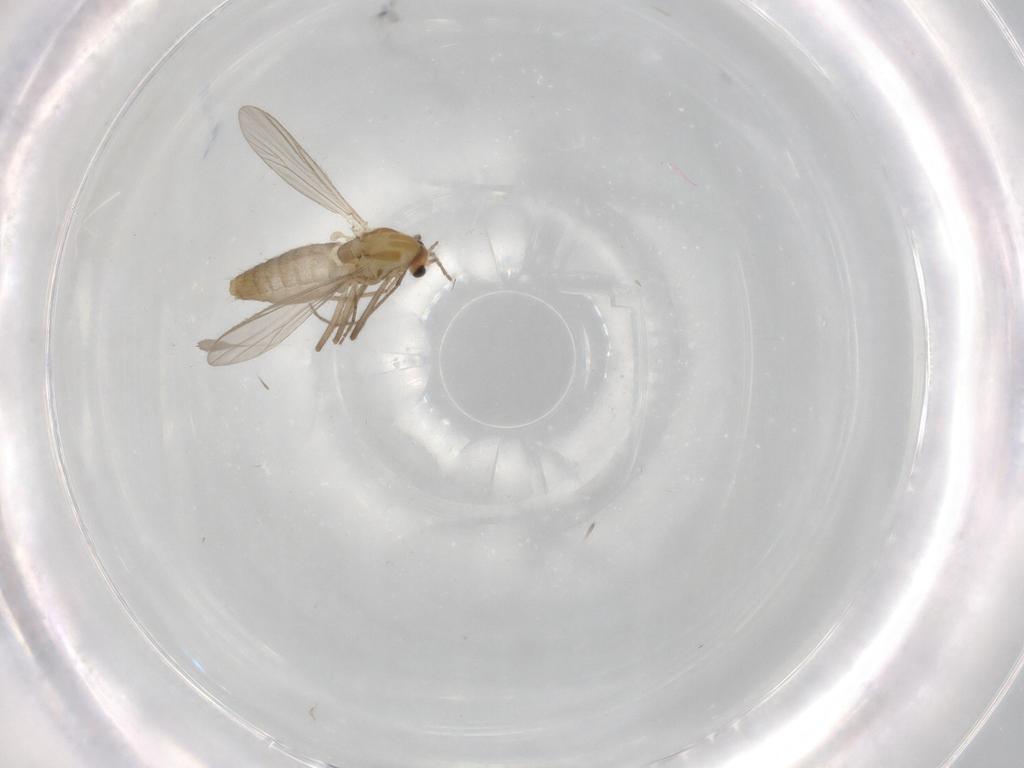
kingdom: Animalia
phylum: Arthropoda
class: Insecta
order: Diptera
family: Chironomidae
